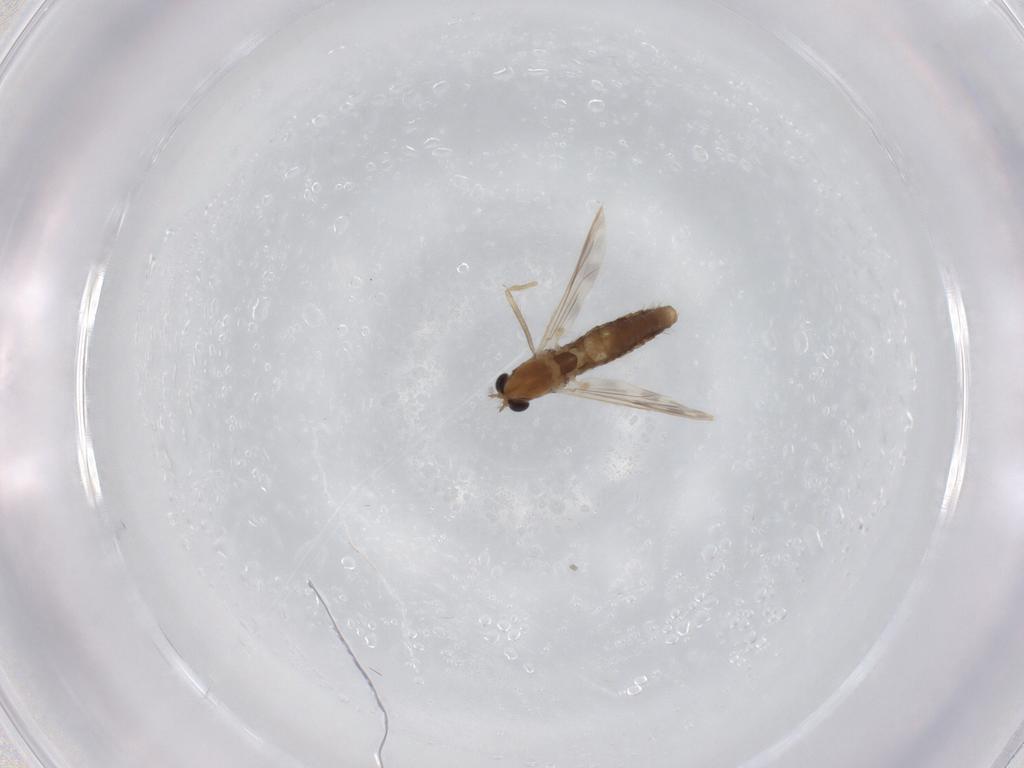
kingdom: Animalia
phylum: Arthropoda
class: Insecta
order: Diptera
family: Chironomidae
